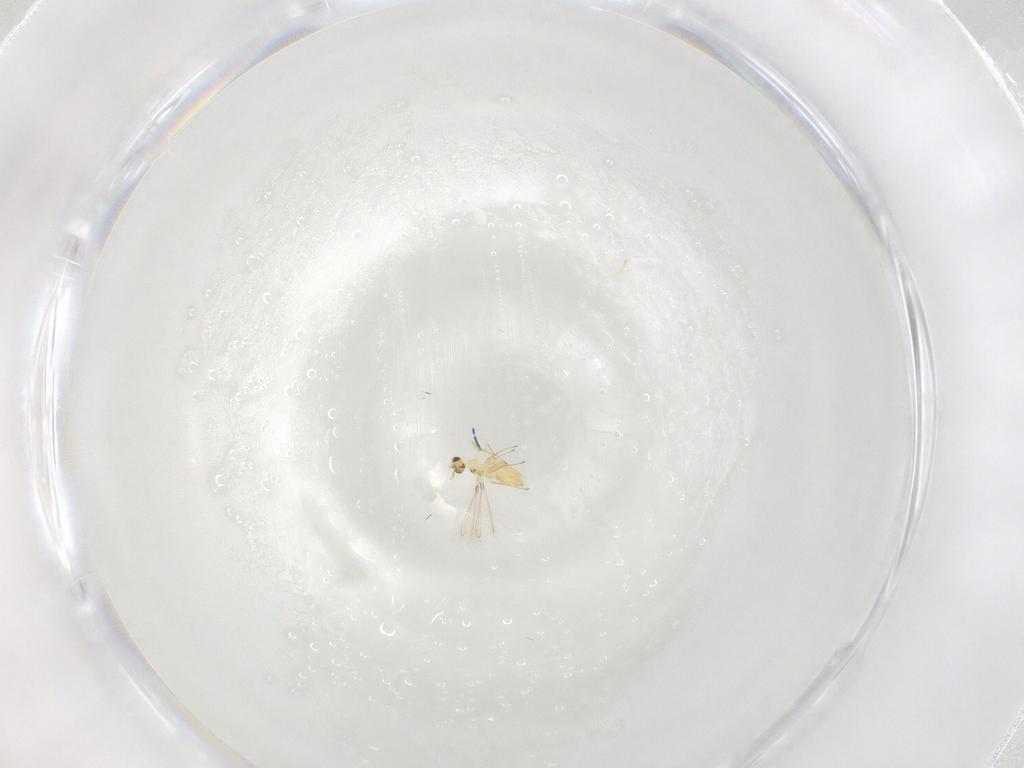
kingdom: Animalia
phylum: Arthropoda
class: Insecta
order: Hymenoptera
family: Mymaridae
